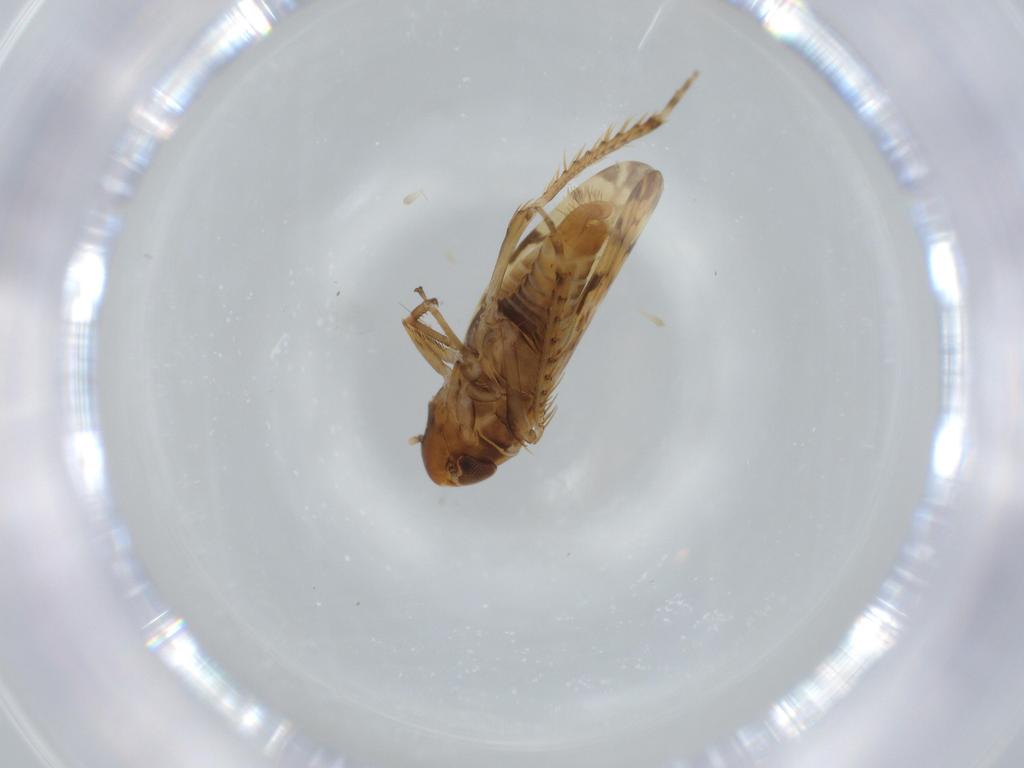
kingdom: Animalia
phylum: Arthropoda
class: Insecta
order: Hemiptera
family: Cicadellidae
